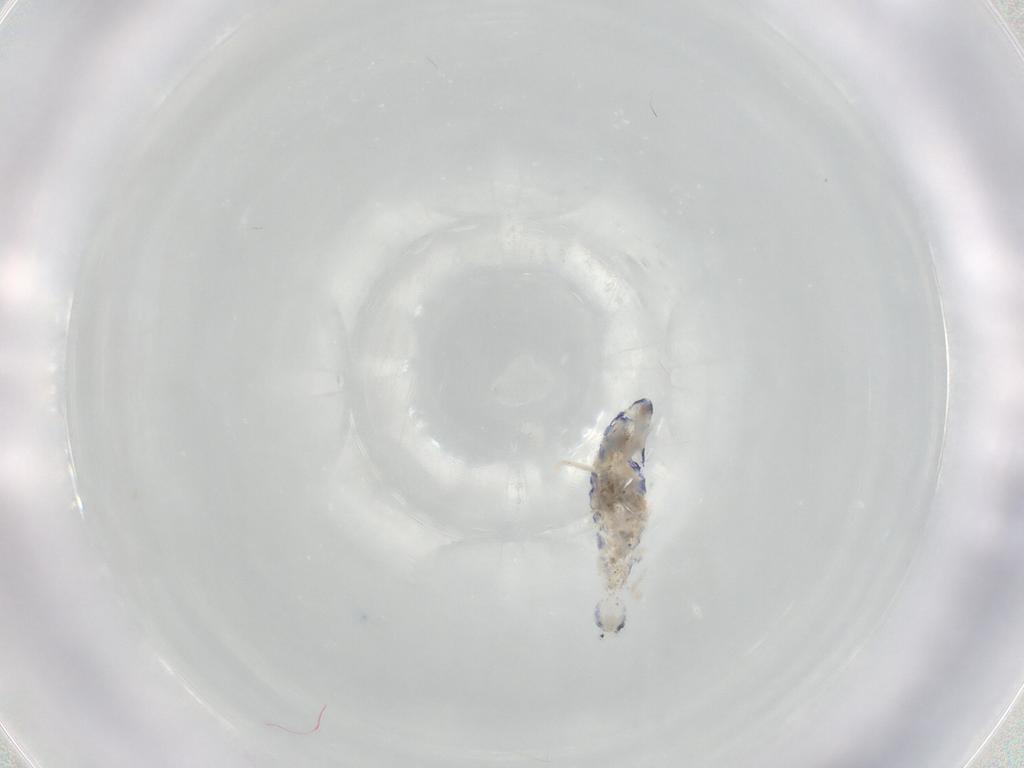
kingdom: Animalia
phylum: Arthropoda
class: Collembola
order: Entomobryomorpha
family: Entomobryidae
